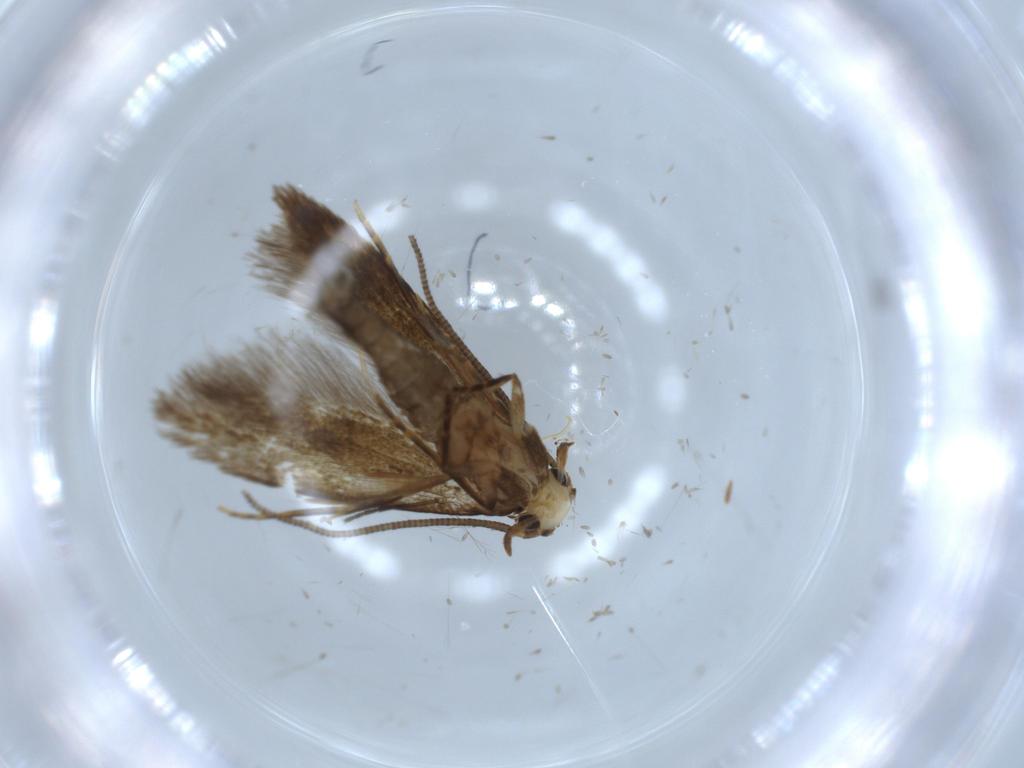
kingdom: Animalia
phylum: Arthropoda
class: Insecta
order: Lepidoptera
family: Tineidae
